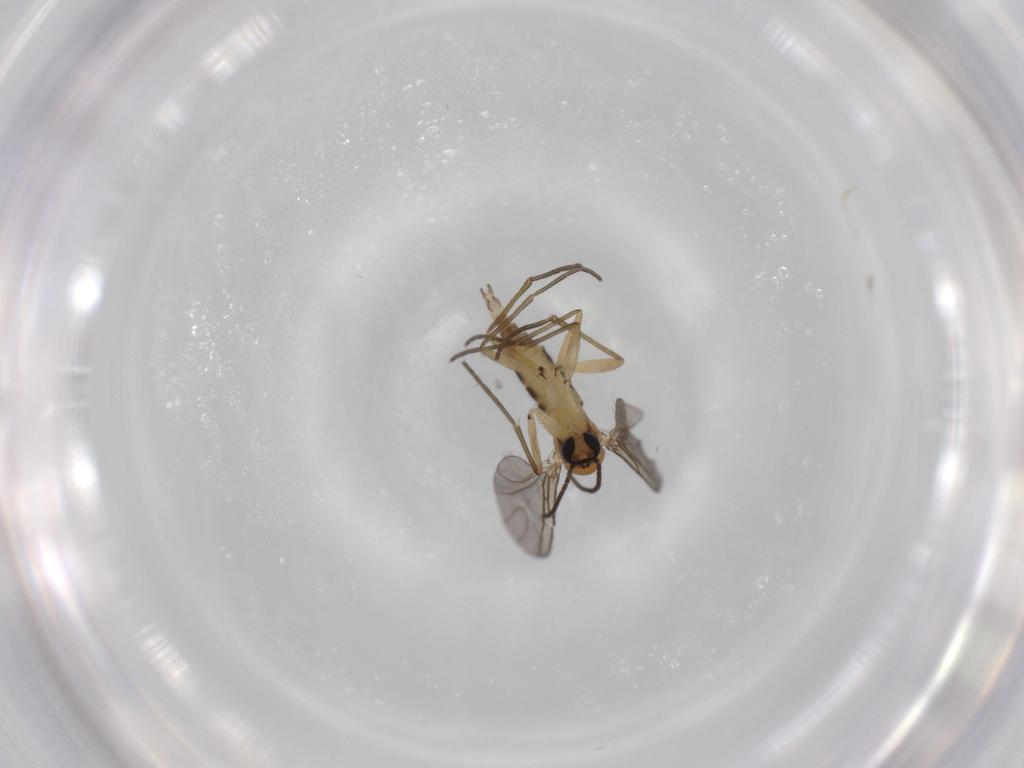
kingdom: Animalia
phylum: Arthropoda
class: Insecta
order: Diptera
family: Sciaridae
